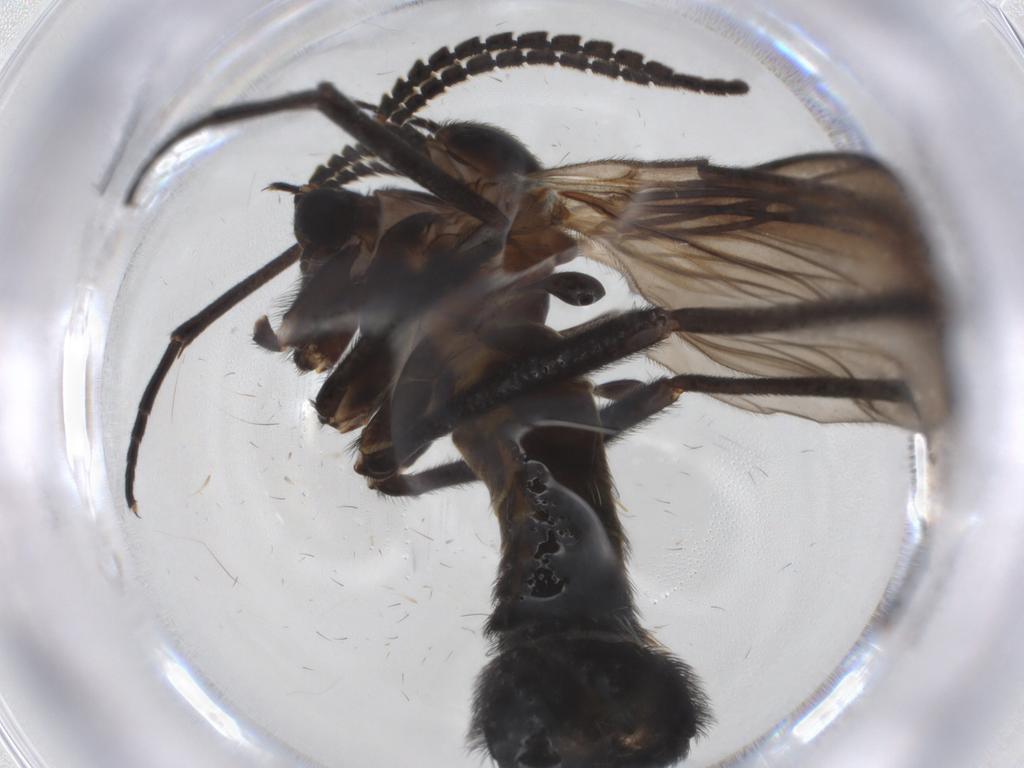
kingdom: Animalia
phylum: Arthropoda
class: Insecta
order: Diptera
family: Sciaridae
